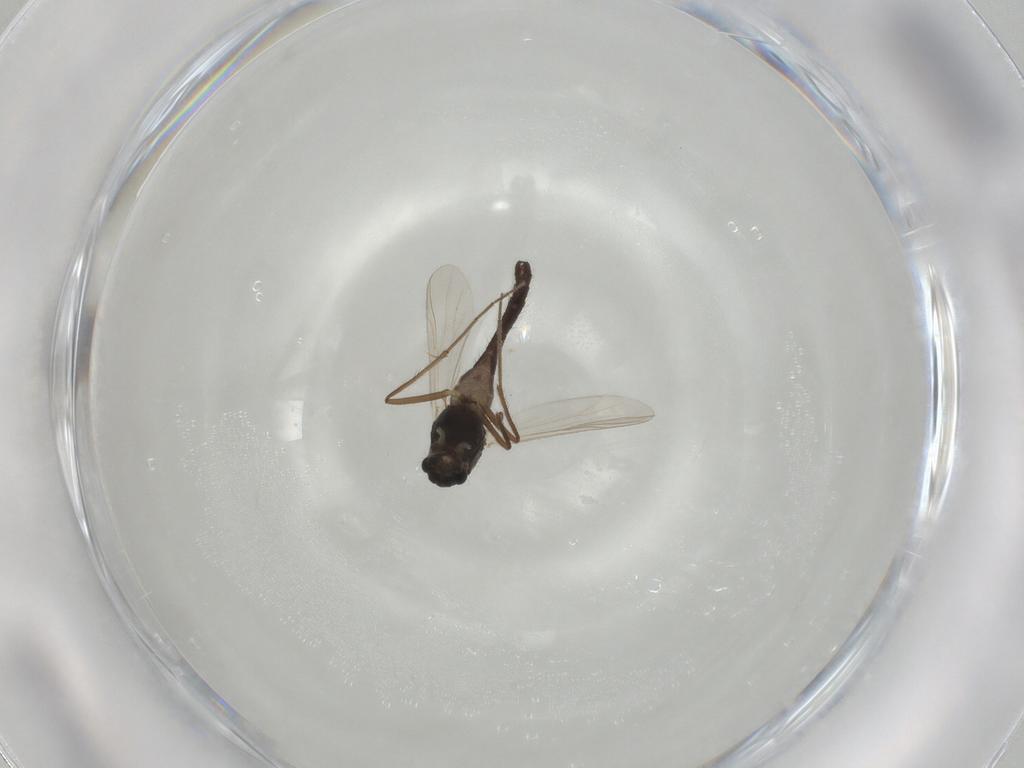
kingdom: Animalia
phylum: Arthropoda
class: Insecta
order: Diptera
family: Chironomidae
